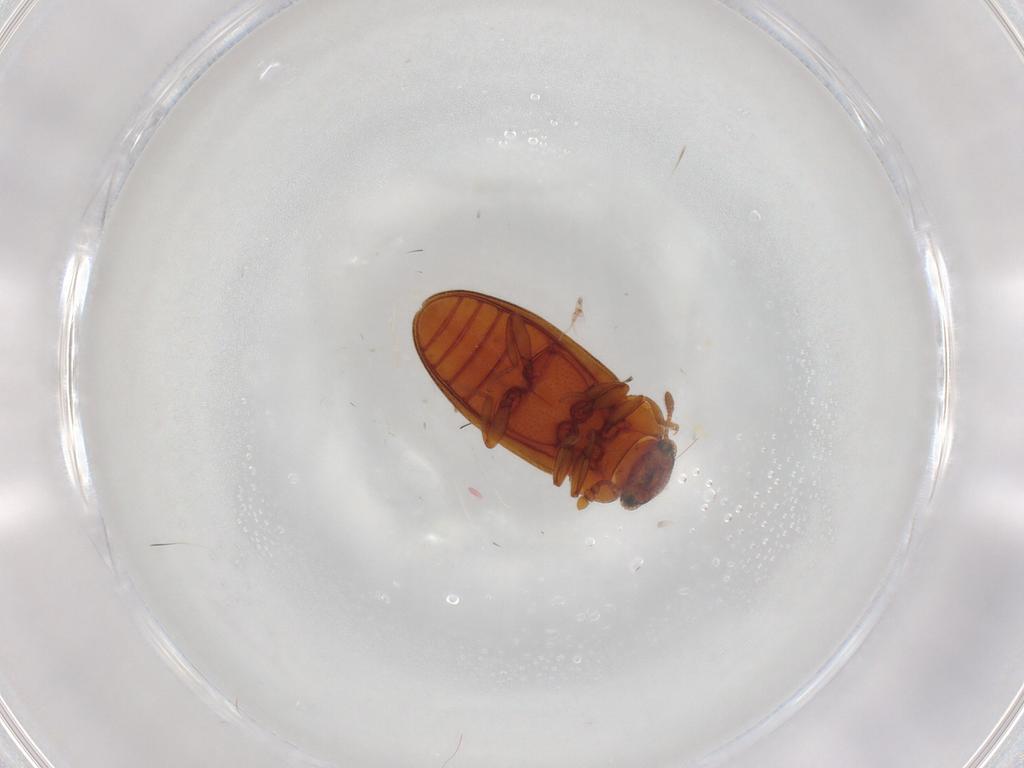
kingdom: Animalia
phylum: Arthropoda
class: Insecta
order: Coleoptera
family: Erotylidae
